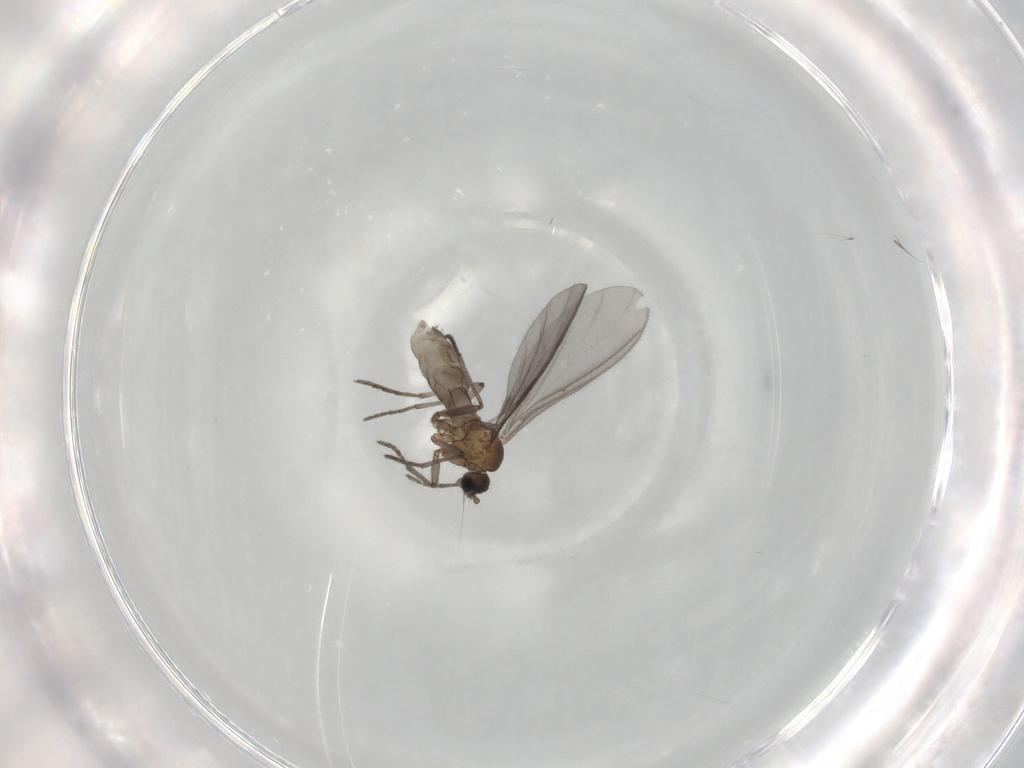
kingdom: Animalia
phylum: Arthropoda
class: Insecta
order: Diptera
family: Sciaridae
